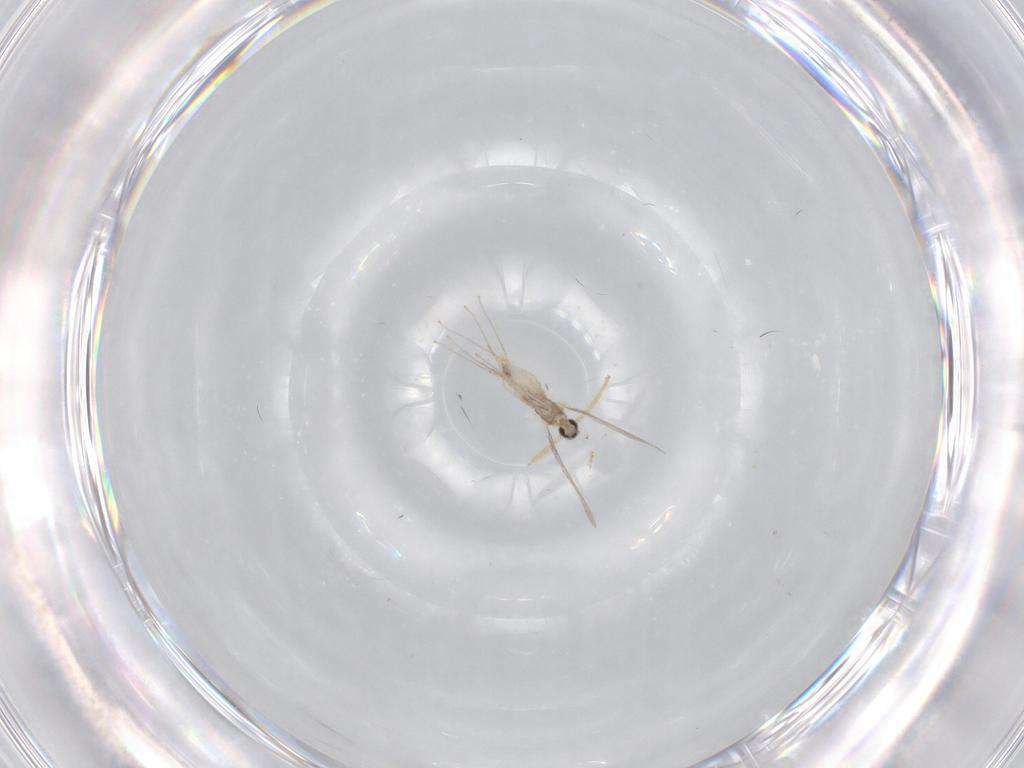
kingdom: Animalia
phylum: Arthropoda
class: Insecta
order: Diptera
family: Cecidomyiidae
